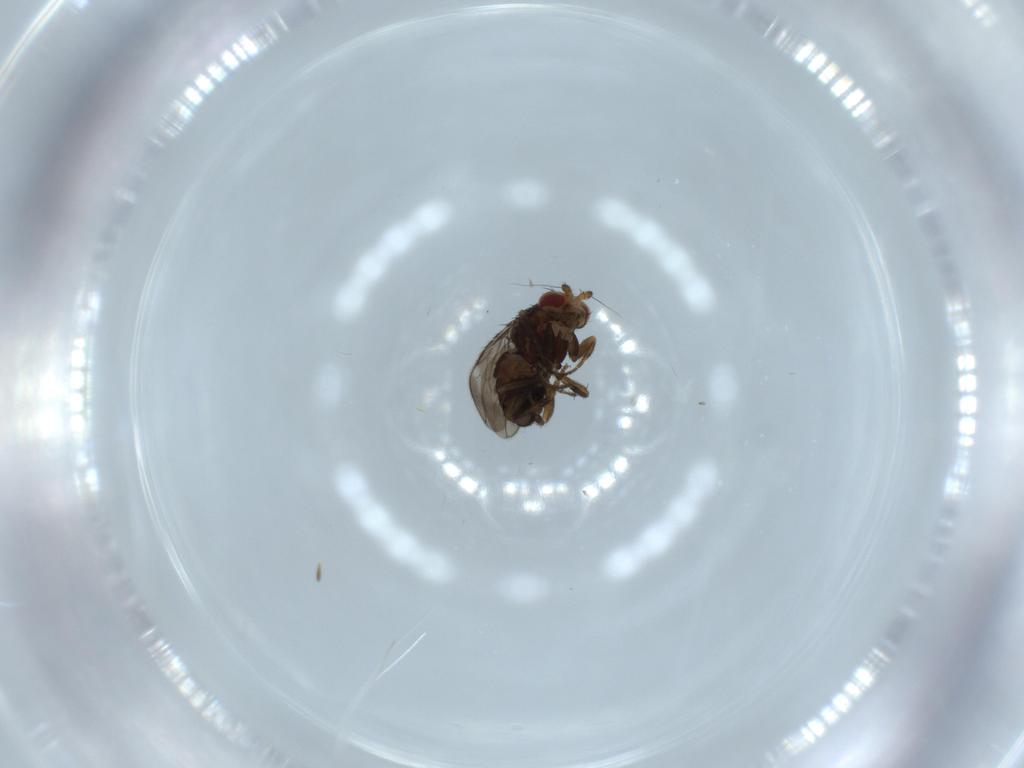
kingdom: Animalia
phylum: Arthropoda
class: Insecta
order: Diptera
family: Sphaeroceridae
